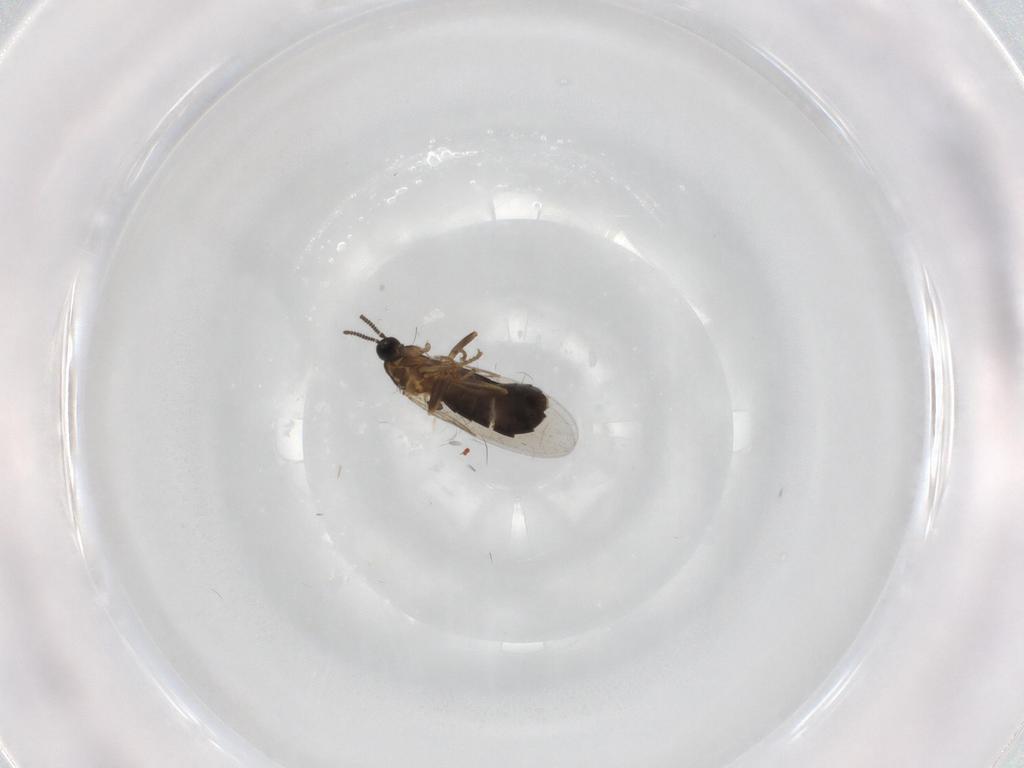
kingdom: Animalia
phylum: Arthropoda
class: Insecta
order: Diptera
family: Scatopsidae
